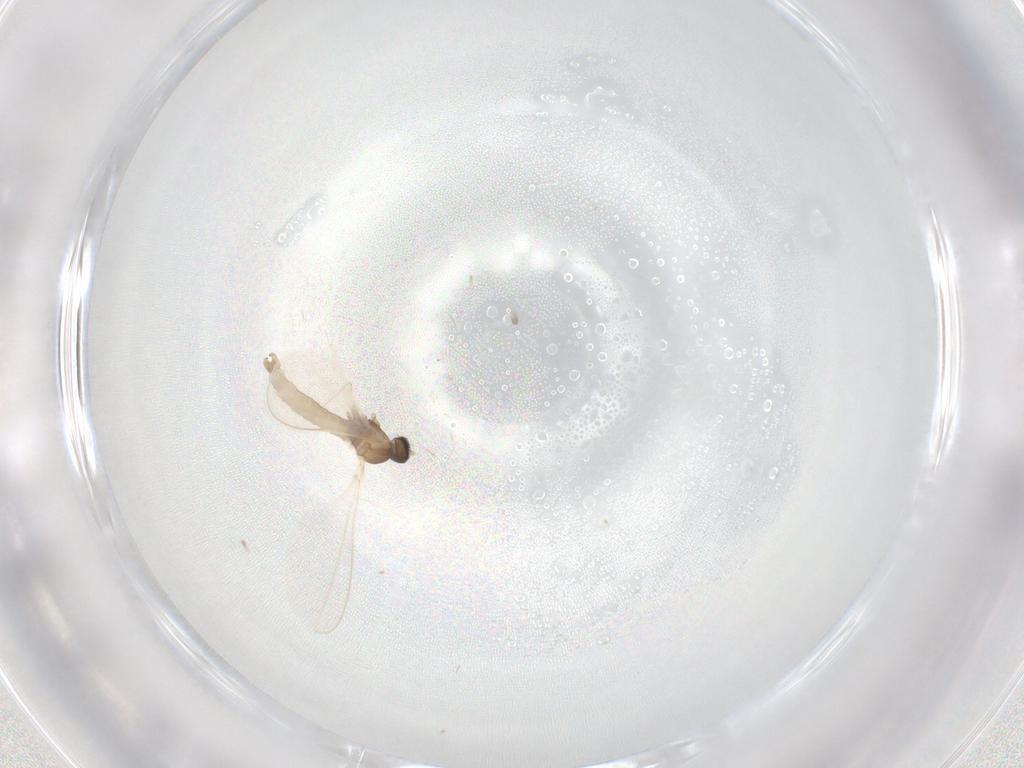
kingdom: Animalia
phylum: Arthropoda
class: Insecta
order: Diptera
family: Cecidomyiidae
